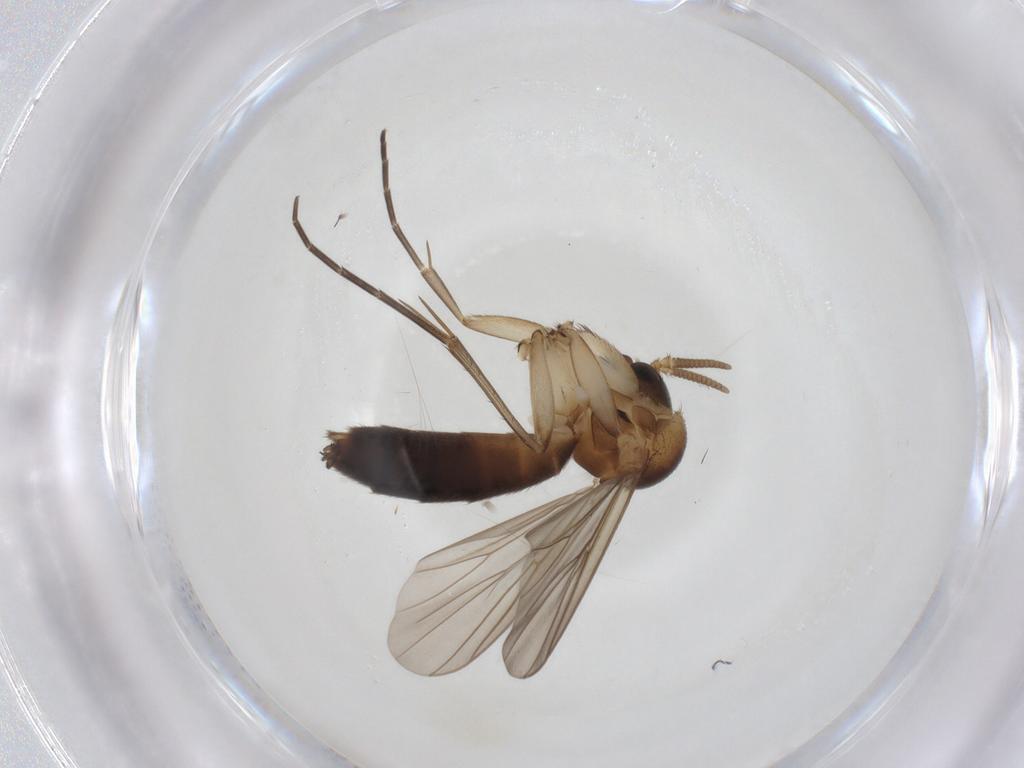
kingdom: Animalia
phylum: Arthropoda
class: Insecta
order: Diptera
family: Mycetophilidae
